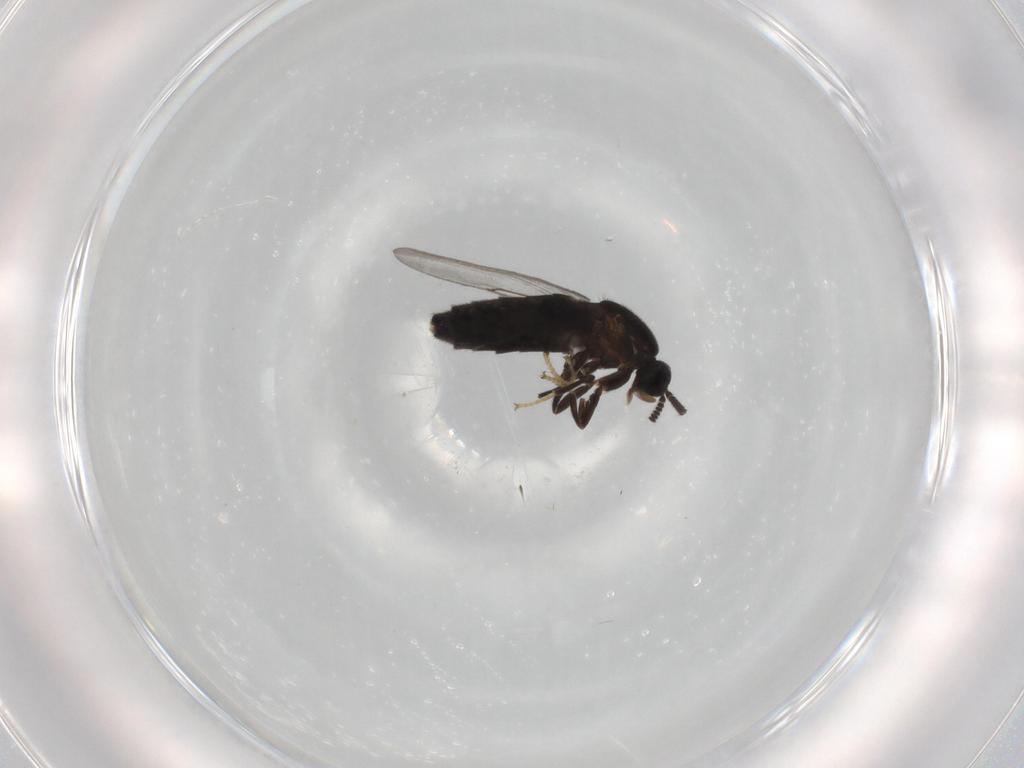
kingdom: Animalia
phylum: Arthropoda
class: Insecta
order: Diptera
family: Scatopsidae
